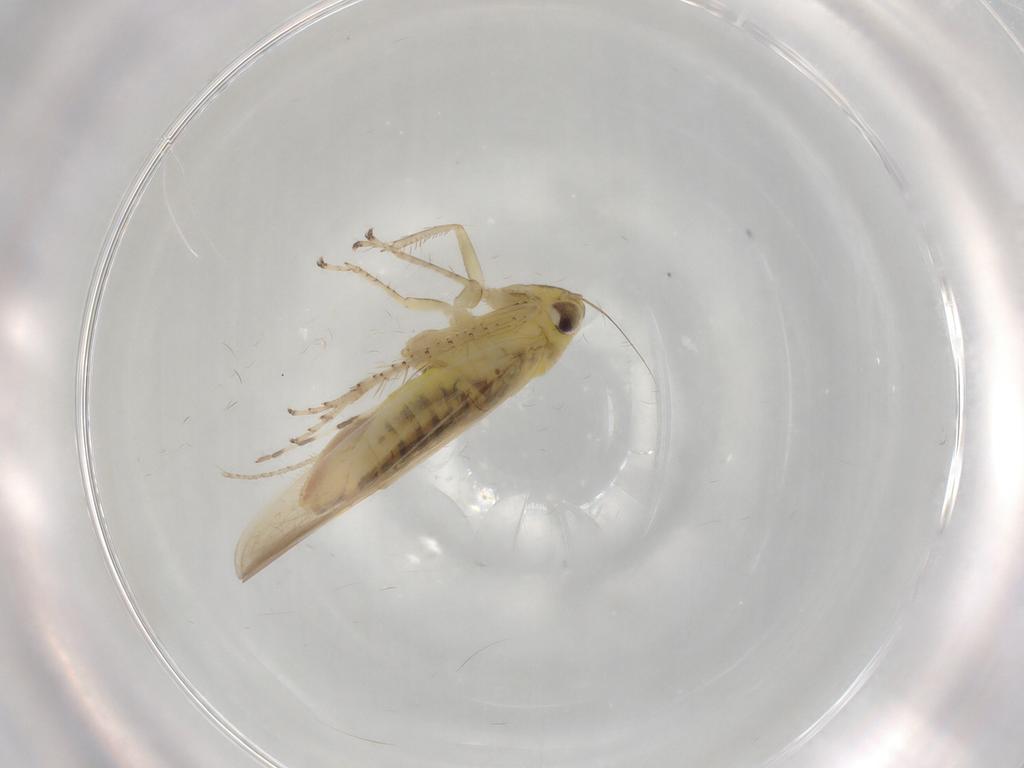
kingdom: Animalia
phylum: Arthropoda
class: Insecta
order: Hemiptera
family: Cicadellidae
